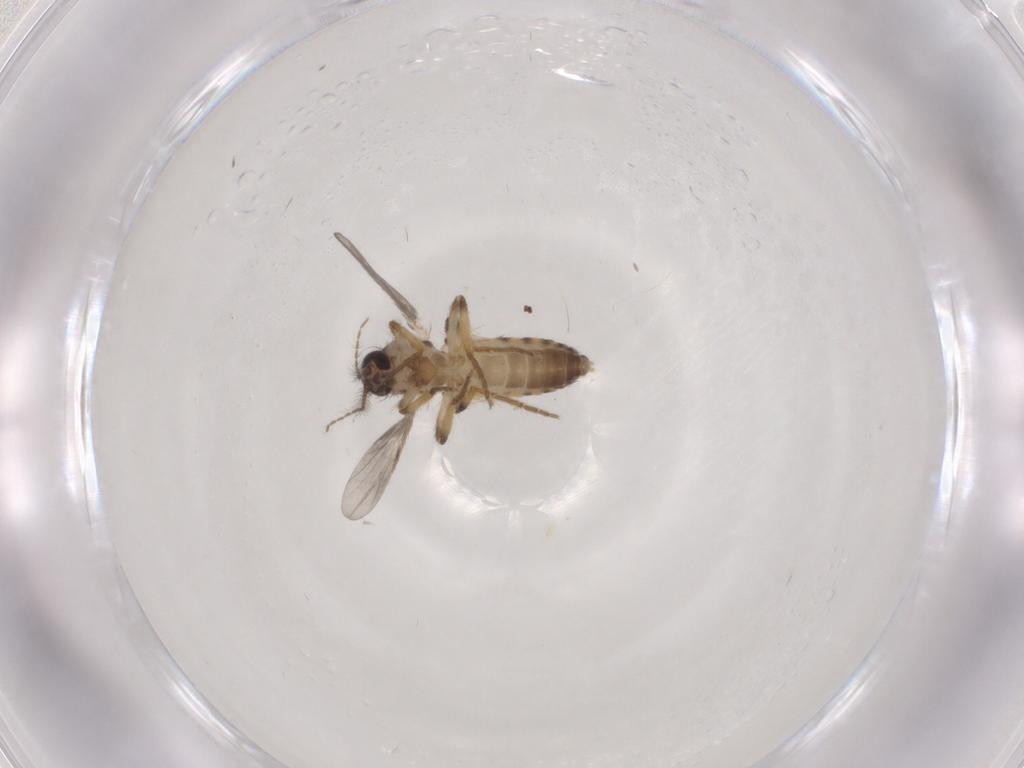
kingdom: Animalia
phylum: Arthropoda
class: Insecta
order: Diptera
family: Ceratopogonidae
